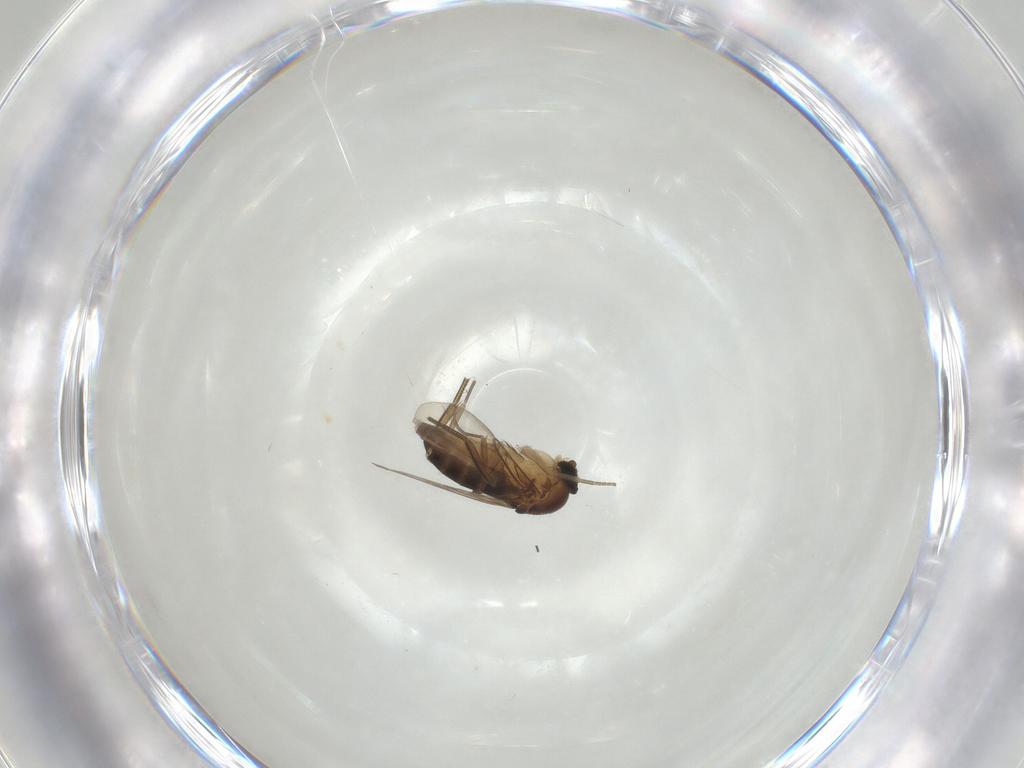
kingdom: Animalia
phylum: Arthropoda
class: Insecta
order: Diptera
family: Phoridae
